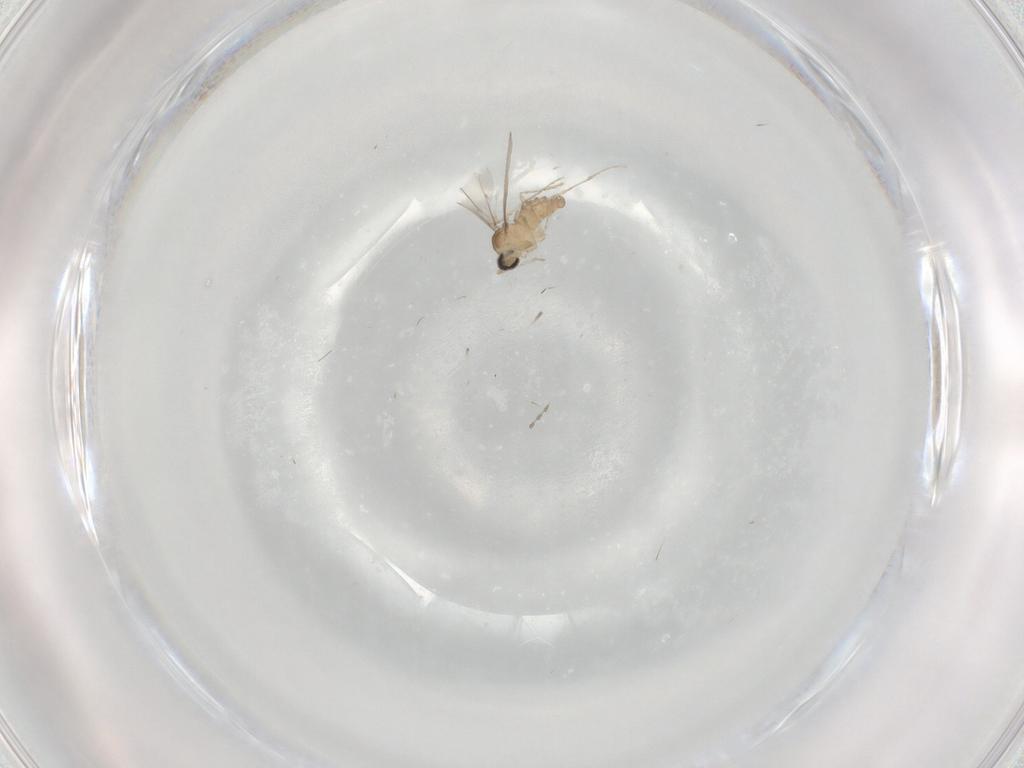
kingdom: Animalia
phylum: Arthropoda
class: Insecta
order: Diptera
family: Cecidomyiidae
